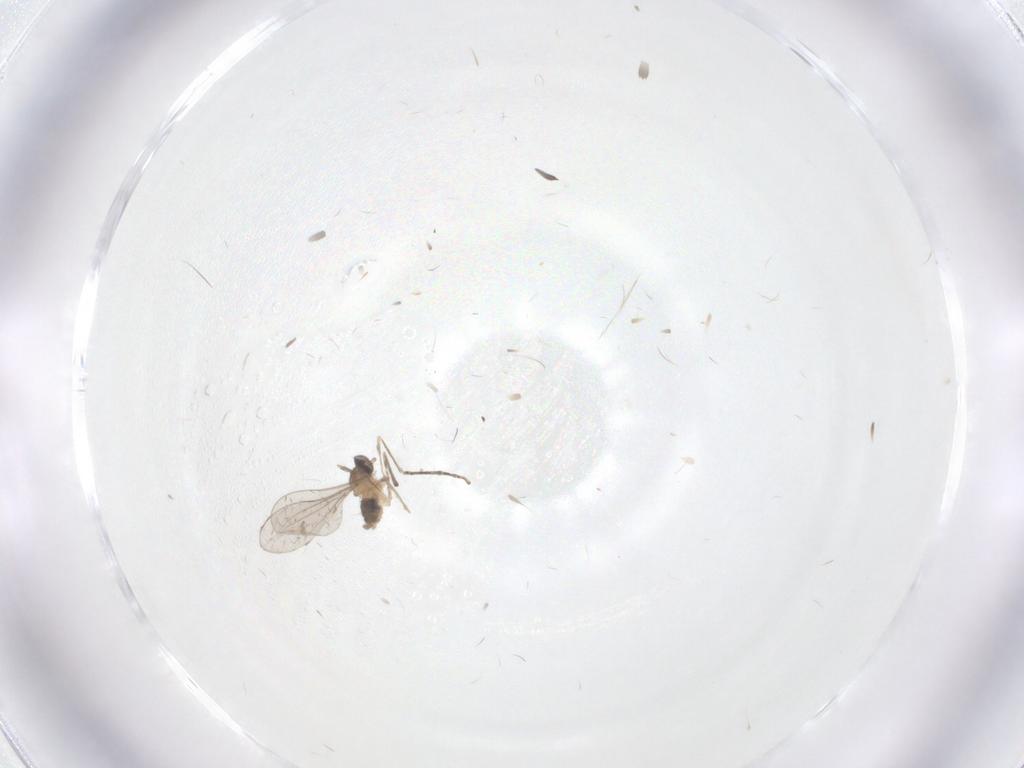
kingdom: Animalia
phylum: Arthropoda
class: Insecta
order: Diptera
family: Cecidomyiidae
